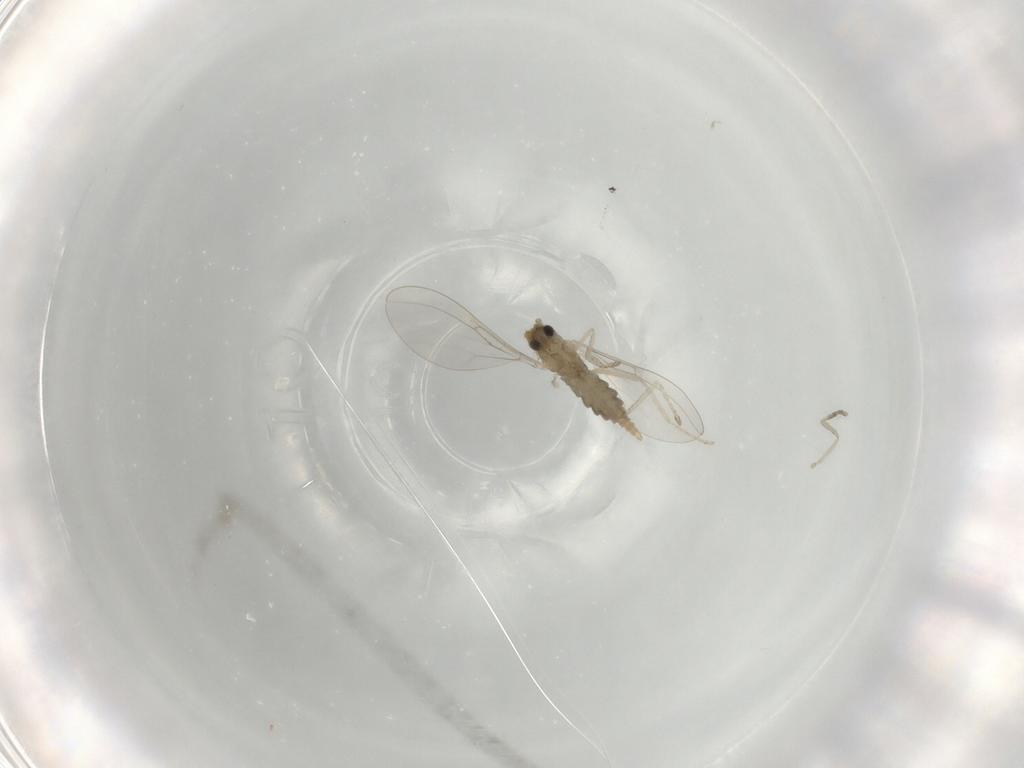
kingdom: Animalia
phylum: Arthropoda
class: Insecta
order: Diptera
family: Cecidomyiidae
